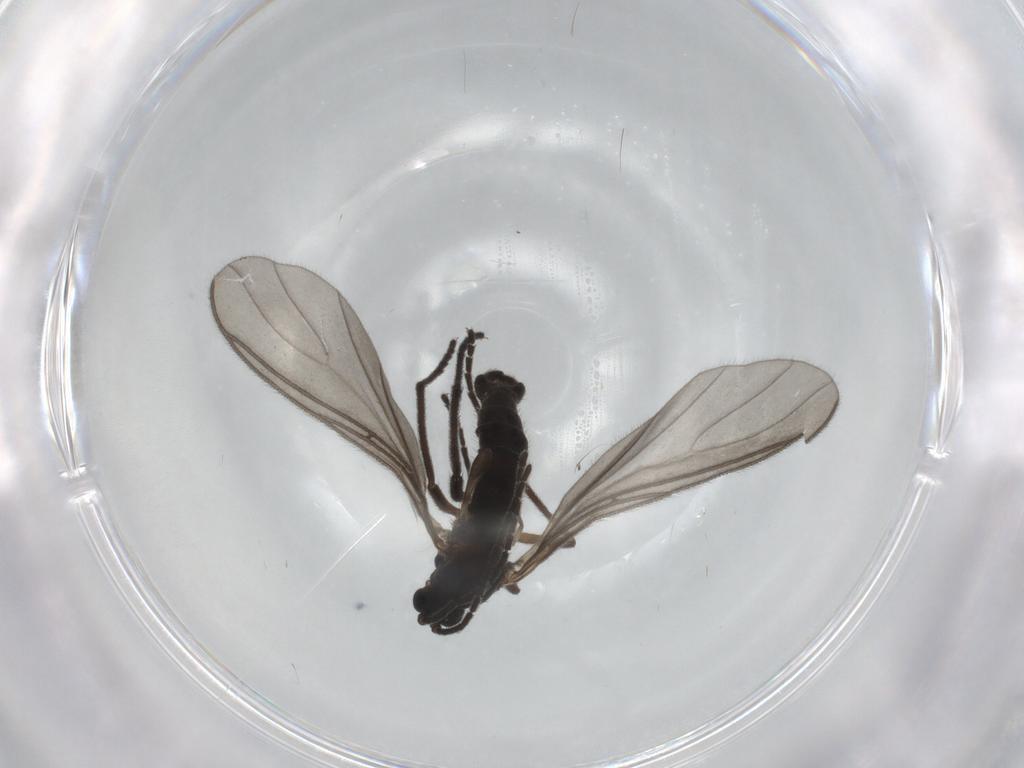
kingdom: Animalia
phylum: Arthropoda
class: Insecta
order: Diptera
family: Sciaridae
